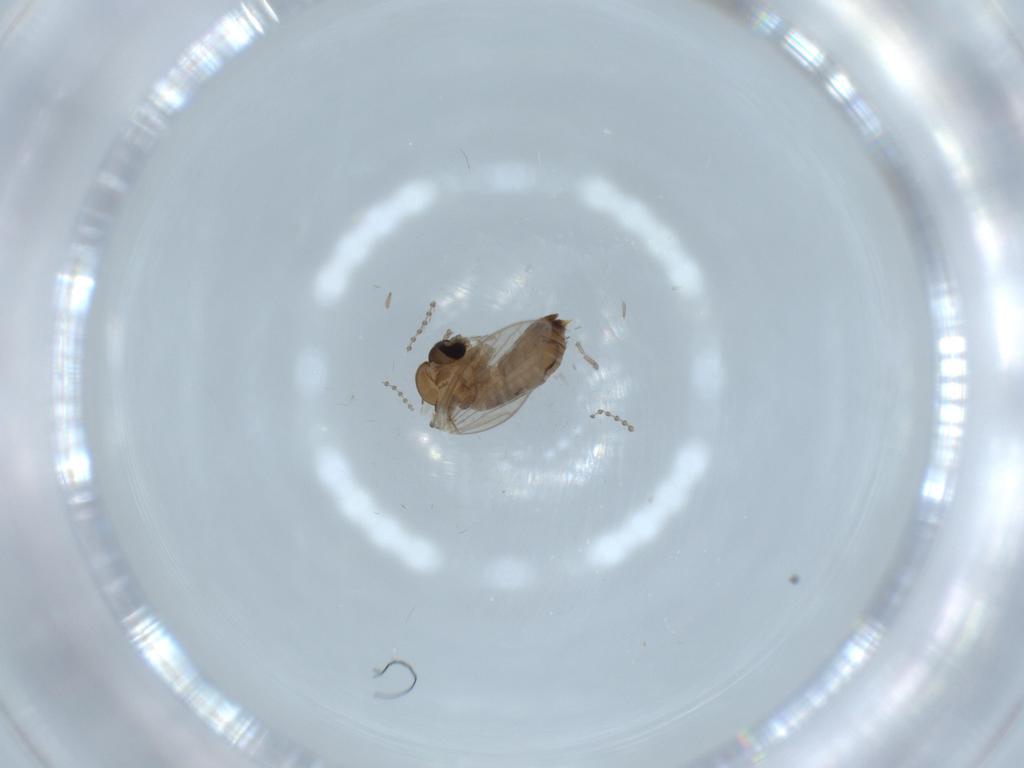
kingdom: Animalia
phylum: Arthropoda
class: Insecta
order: Diptera
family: Psychodidae
